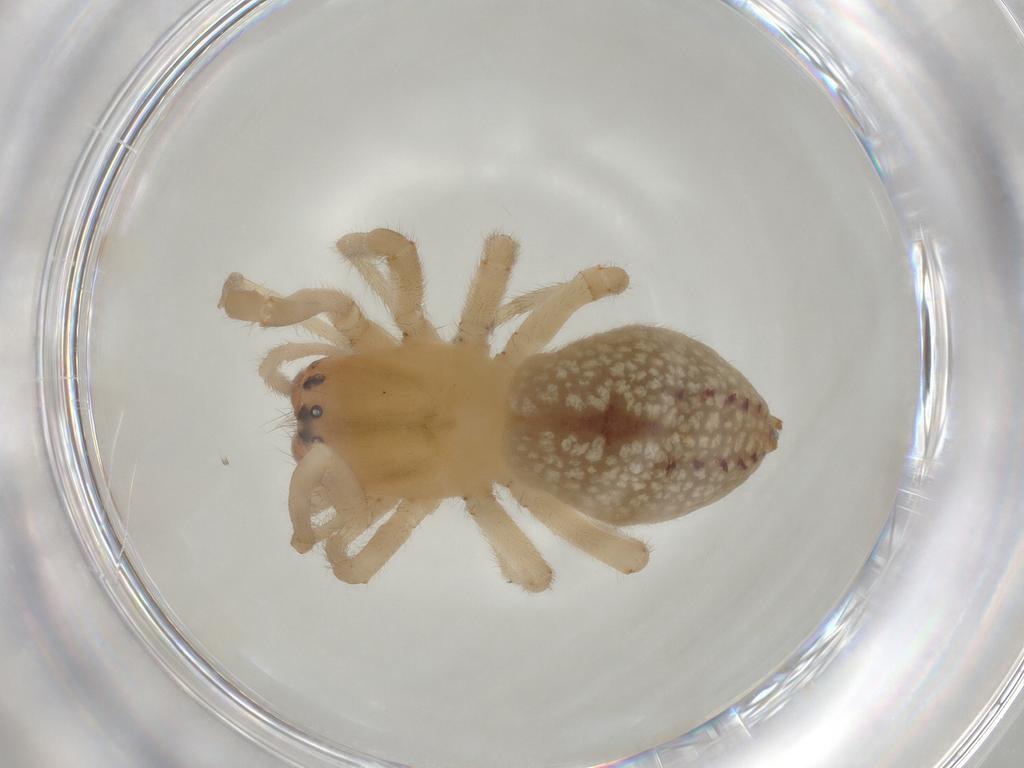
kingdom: Animalia
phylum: Arthropoda
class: Arachnida
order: Araneae
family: Cheiracanthiidae
